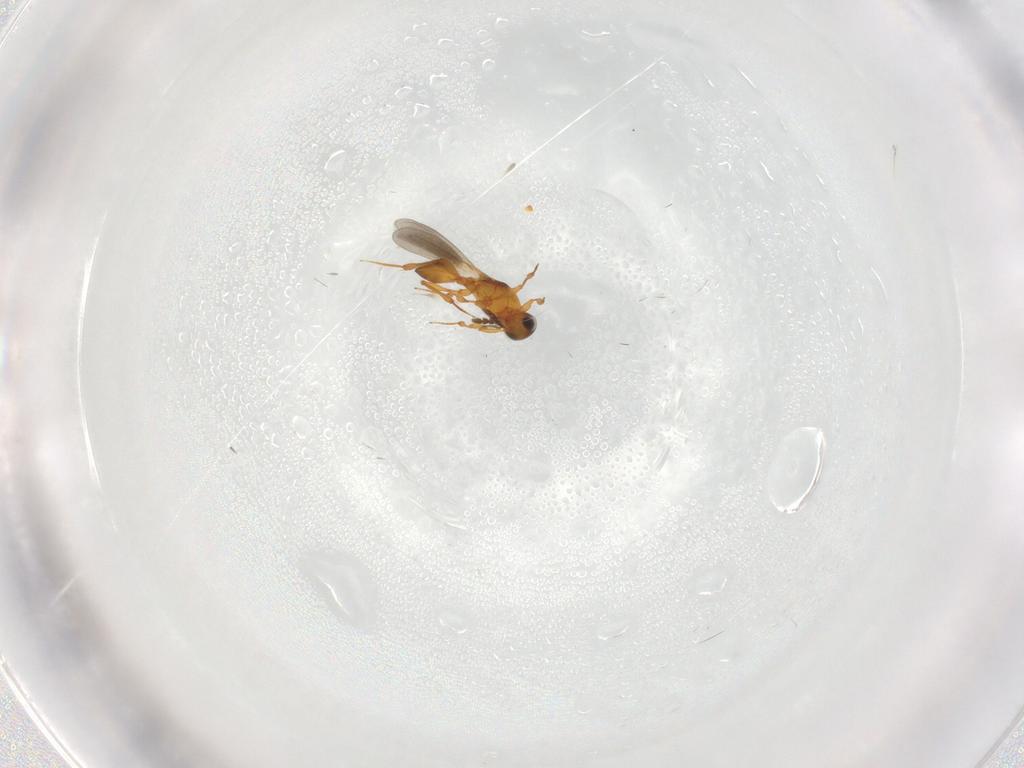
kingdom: Animalia
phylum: Arthropoda
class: Insecta
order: Hymenoptera
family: Platygastridae
